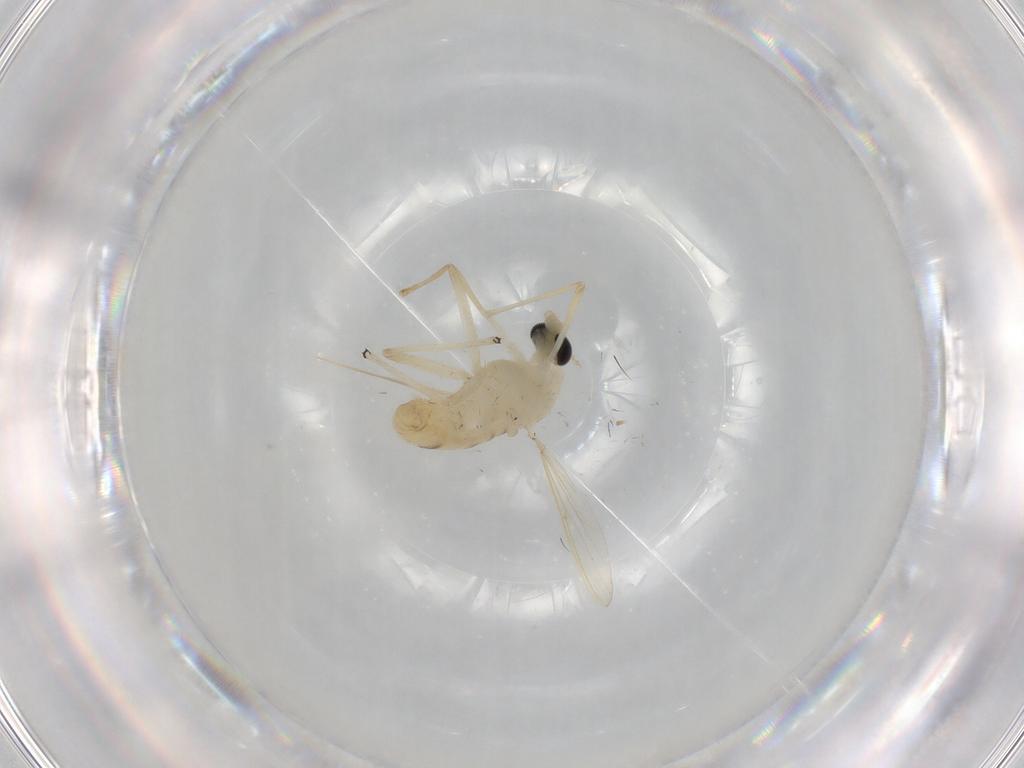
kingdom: Animalia
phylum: Arthropoda
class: Insecta
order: Diptera
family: Chironomidae
